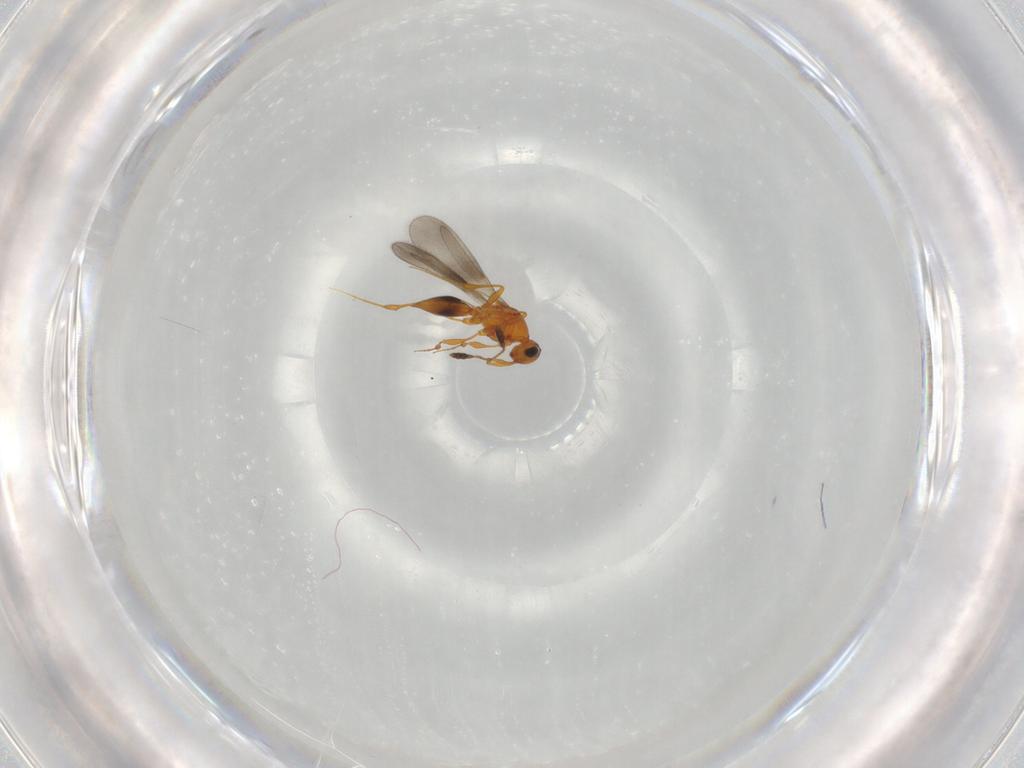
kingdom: Animalia
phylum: Arthropoda
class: Insecta
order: Hymenoptera
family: Platygastridae
